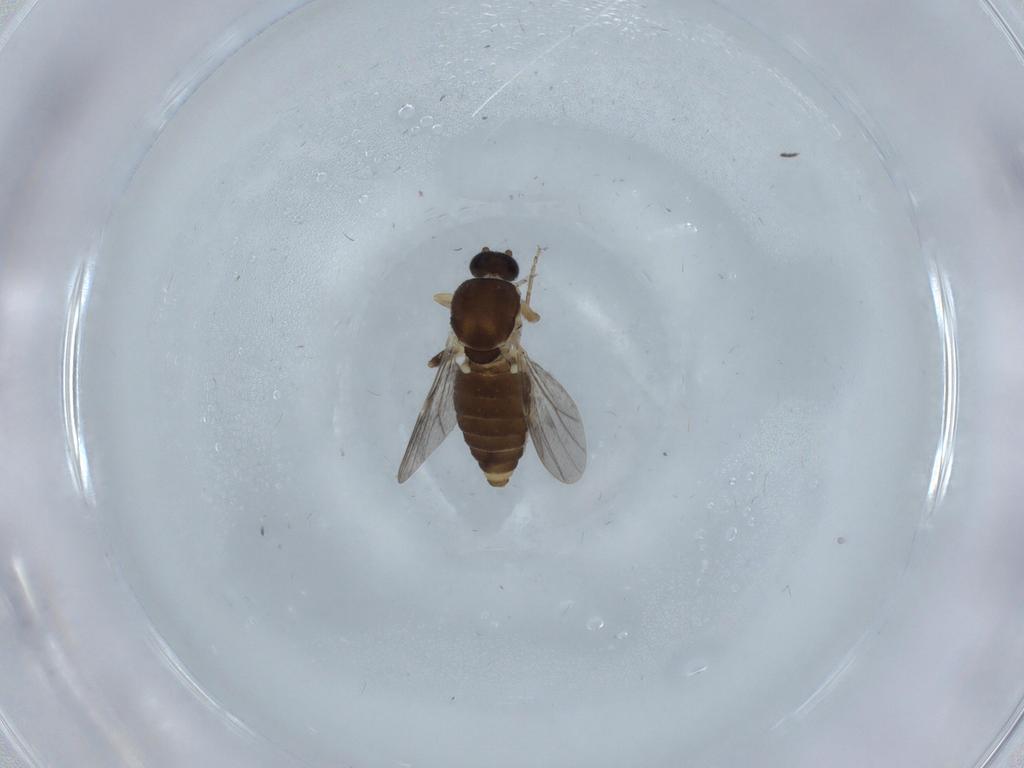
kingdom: Animalia
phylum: Arthropoda
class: Insecta
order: Diptera
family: Ceratopogonidae
